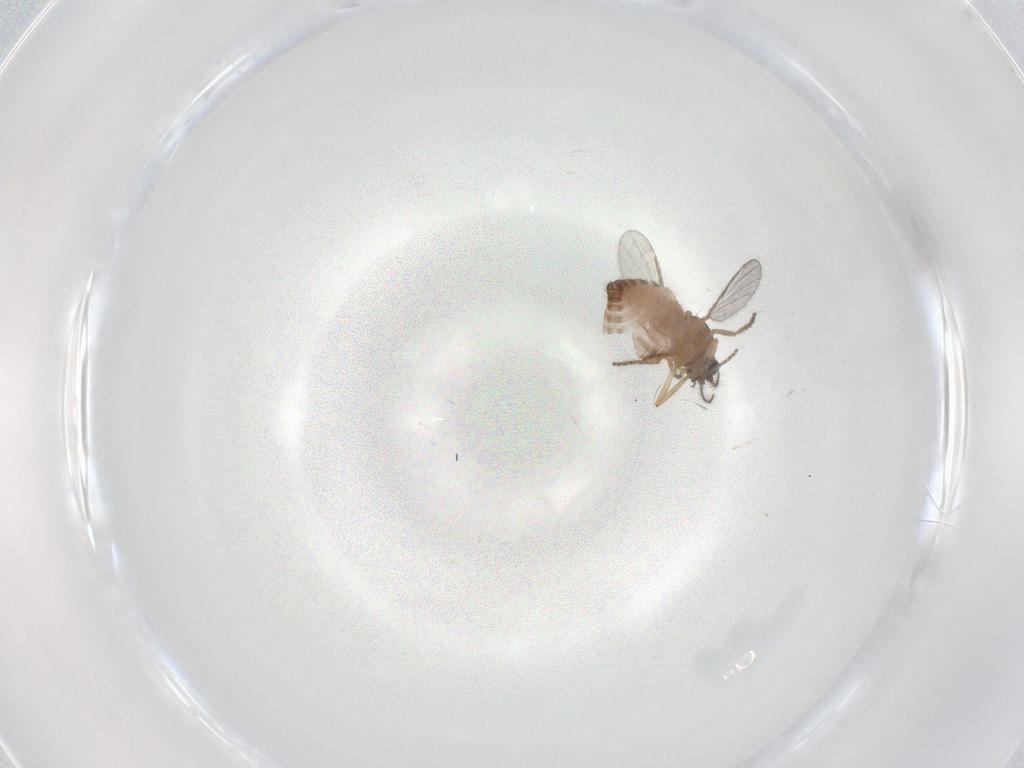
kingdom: Animalia
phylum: Arthropoda
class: Insecta
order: Diptera
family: Ceratopogonidae
